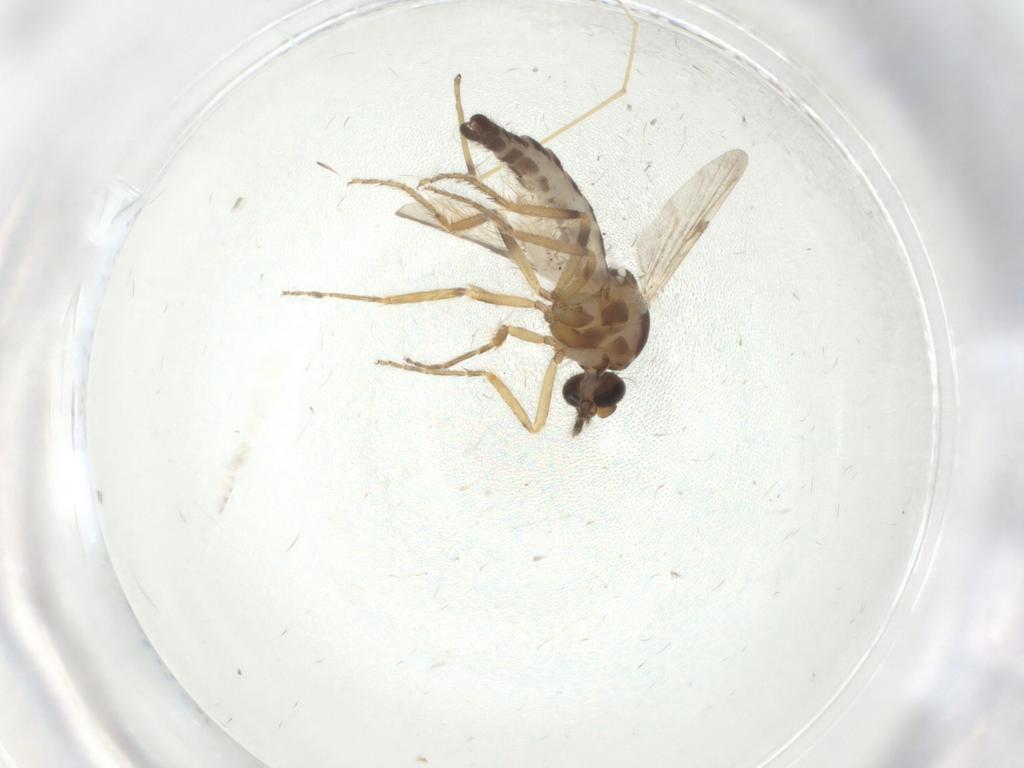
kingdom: Animalia
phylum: Arthropoda
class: Insecta
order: Diptera
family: Ceratopogonidae
